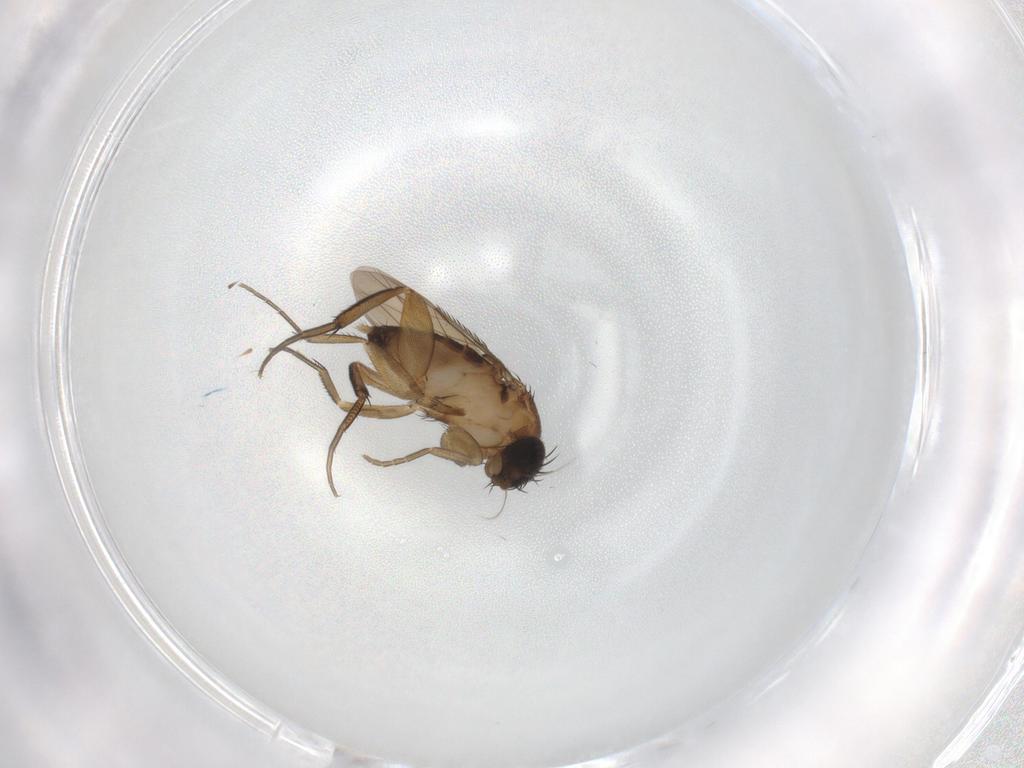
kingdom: Animalia
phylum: Arthropoda
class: Insecta
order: Diptera
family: Phoridae
